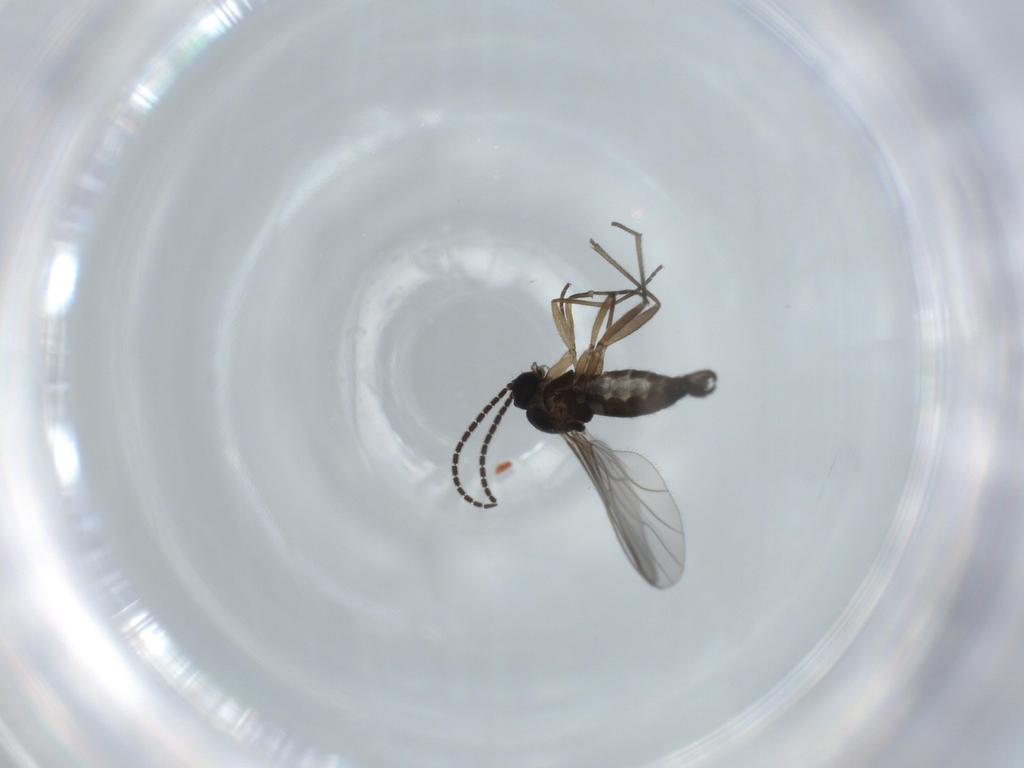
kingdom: Animalia
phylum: Arthropoda
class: Insecta
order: Diptera
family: Sciaridae
